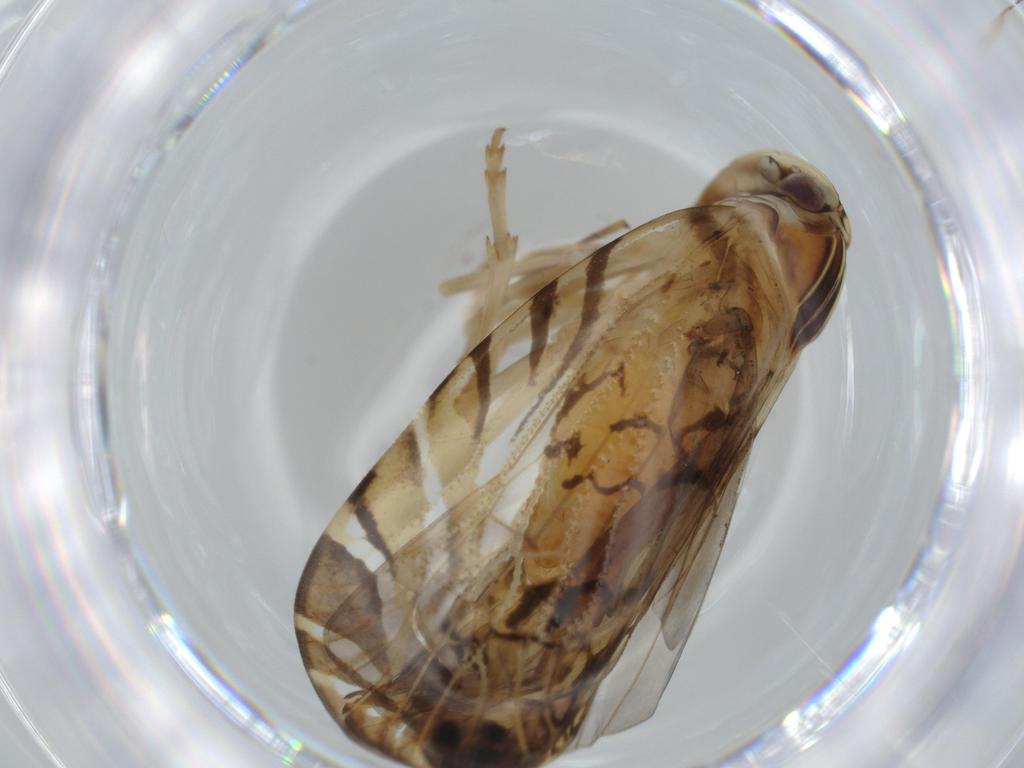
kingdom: Animalia
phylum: Arthropoda
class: Insecta
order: Hemiptera
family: Cixiidae
